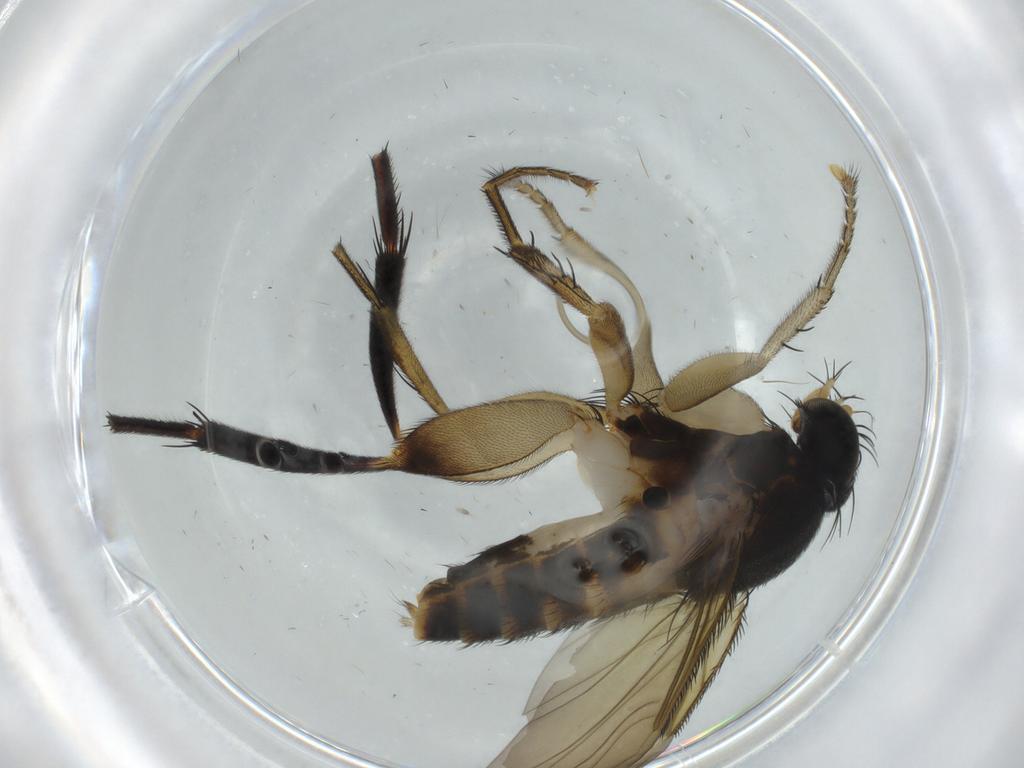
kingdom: Animalia
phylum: Arthropoda
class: Insecta
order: Diptera
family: Phoridae
